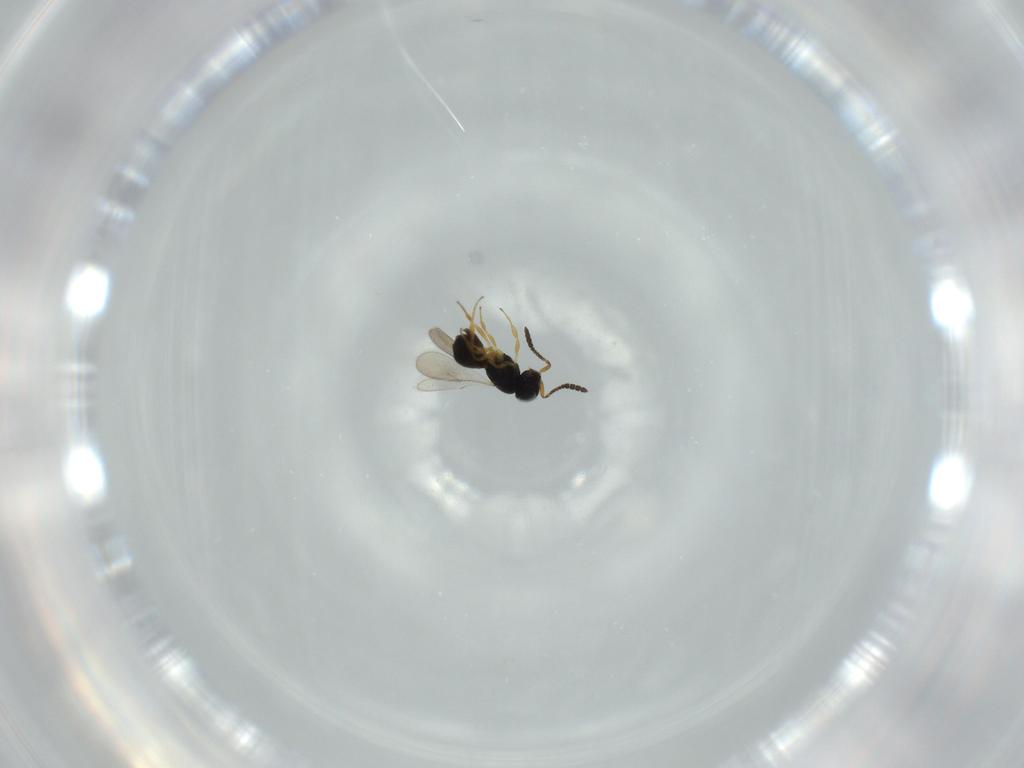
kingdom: Animalia
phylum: Arthropoda
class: Insecta
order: Hymenoptera
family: Scelionidae
